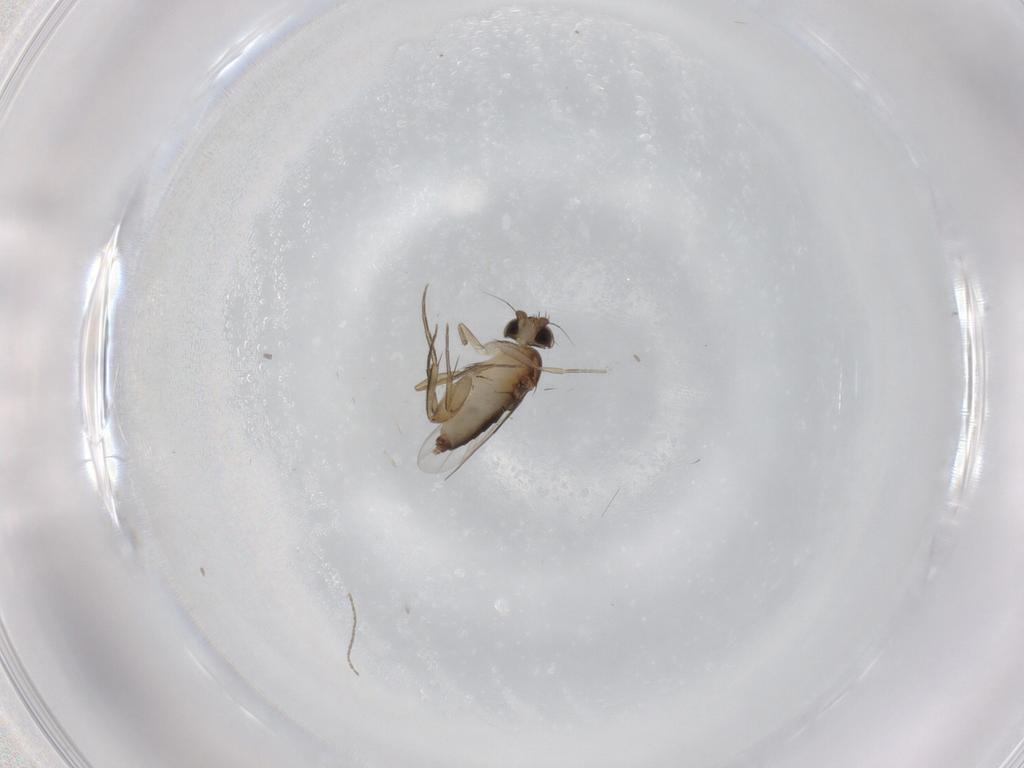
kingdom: Animalia
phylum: Arthropoda
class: Insecta
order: Diptera
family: Phoridae
